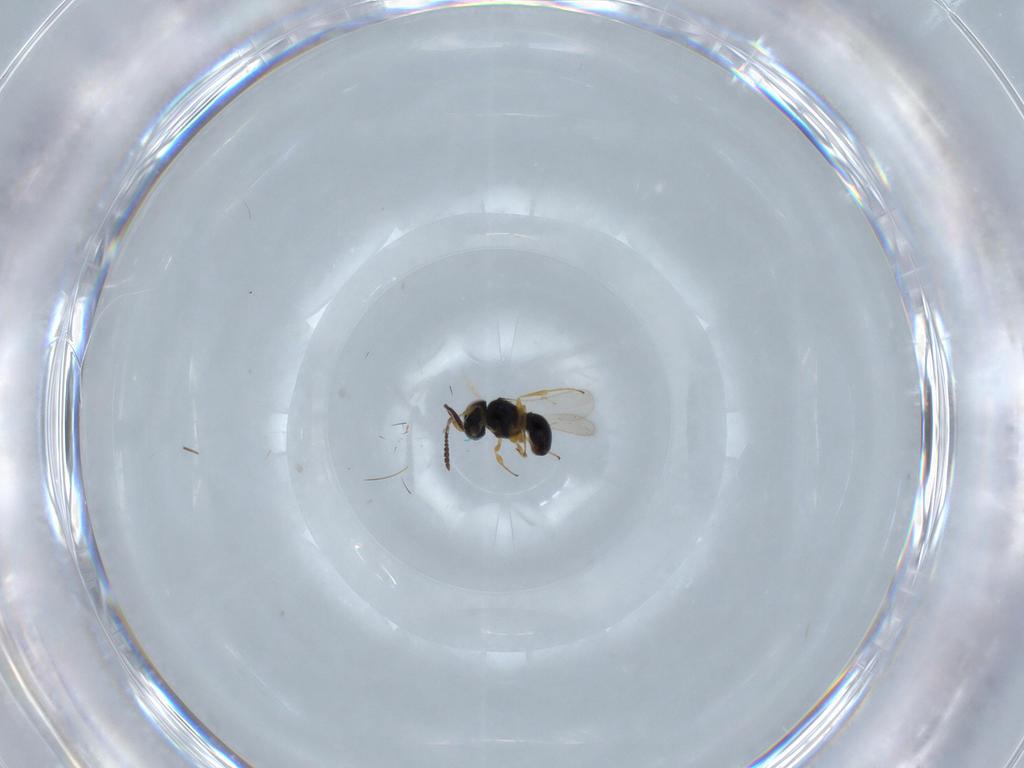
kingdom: Animalia
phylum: Arthropoda
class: Insecta
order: Hymenoptera
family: Scelionidae
